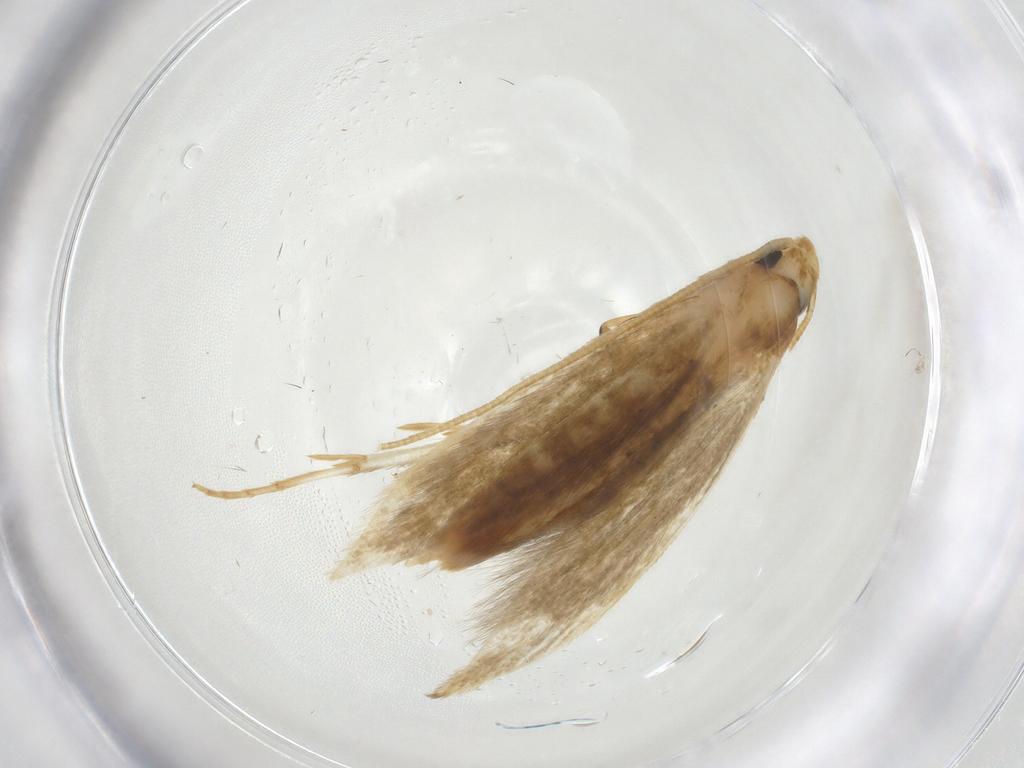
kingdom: Animalia
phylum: Arthropoda
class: Insecta
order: Lepidoptera
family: Tineidae
